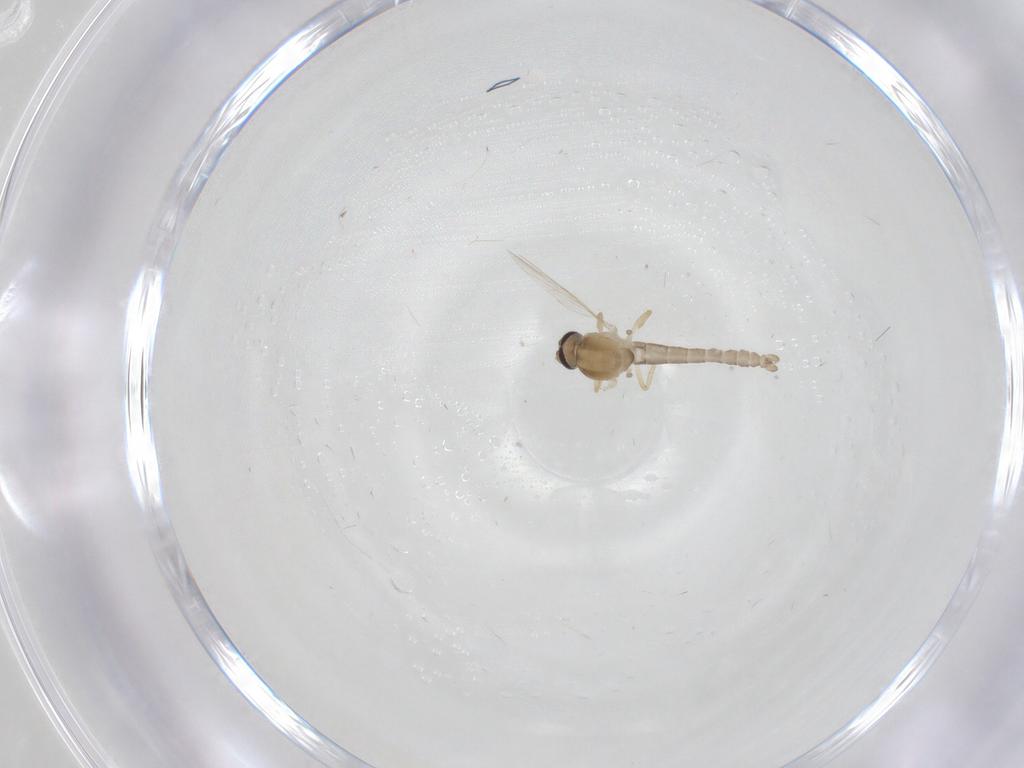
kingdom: Animalia
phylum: Arthropoda
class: Insecta
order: Diptera
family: Ceratopogonidae
